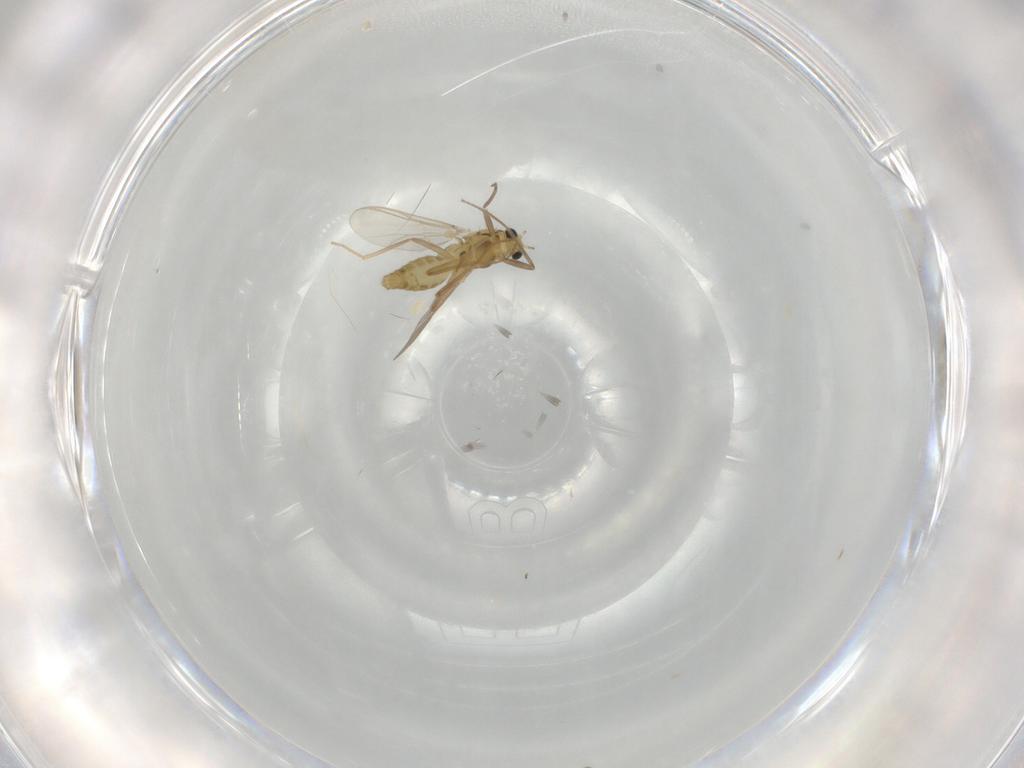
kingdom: Animalia
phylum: Arthropoda
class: Insecta
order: Diptera
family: Chironomidae
